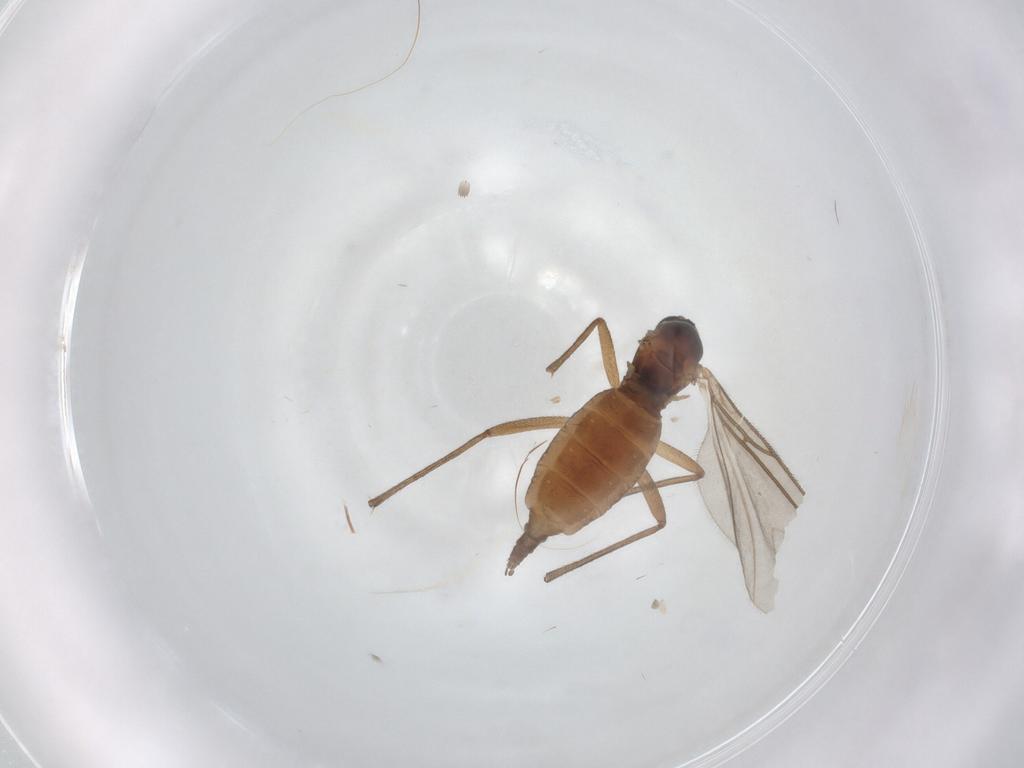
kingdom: Animalia
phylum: Arthropoda
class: Insecta
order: Diptera
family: Sciaridae
